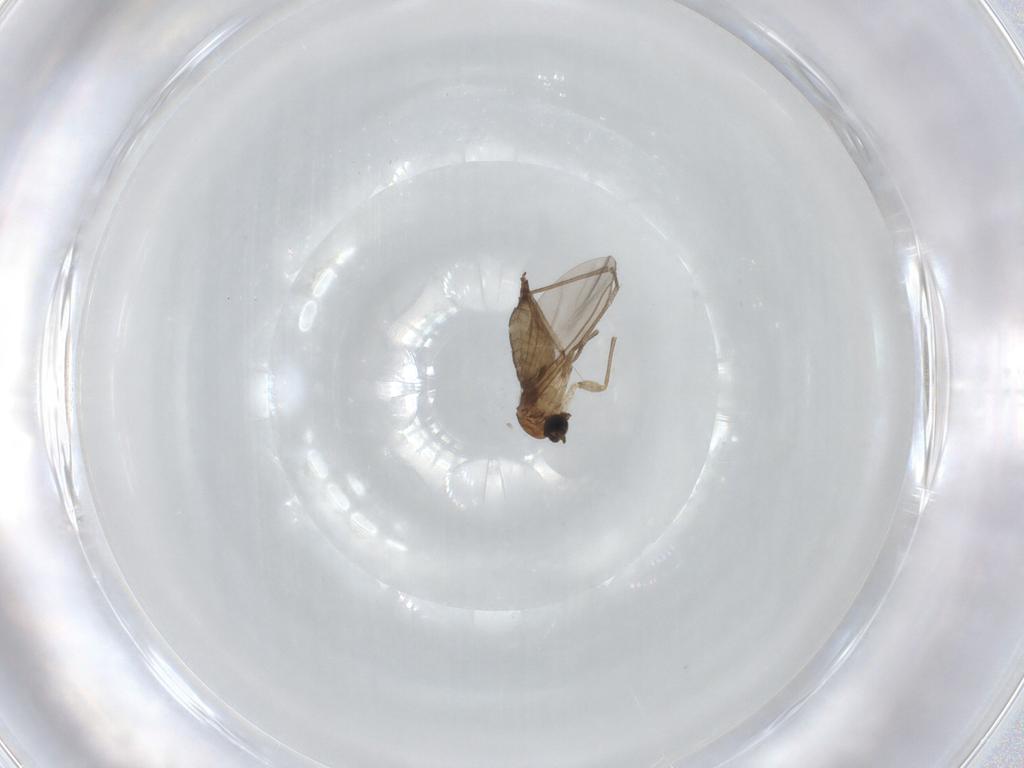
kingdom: Animalia
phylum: Arthropoda
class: Insecta
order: Diptera
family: Sciaridae
